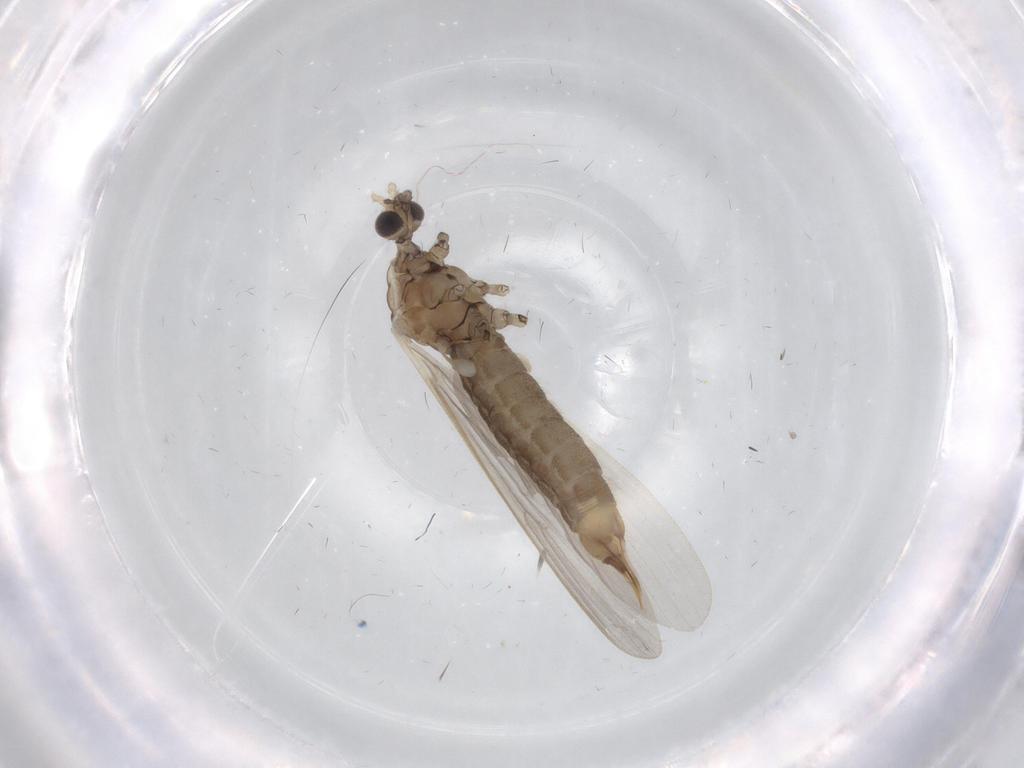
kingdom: Animalia
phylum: Arthropoda
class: Insecta
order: Diptera
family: Limoniidae
